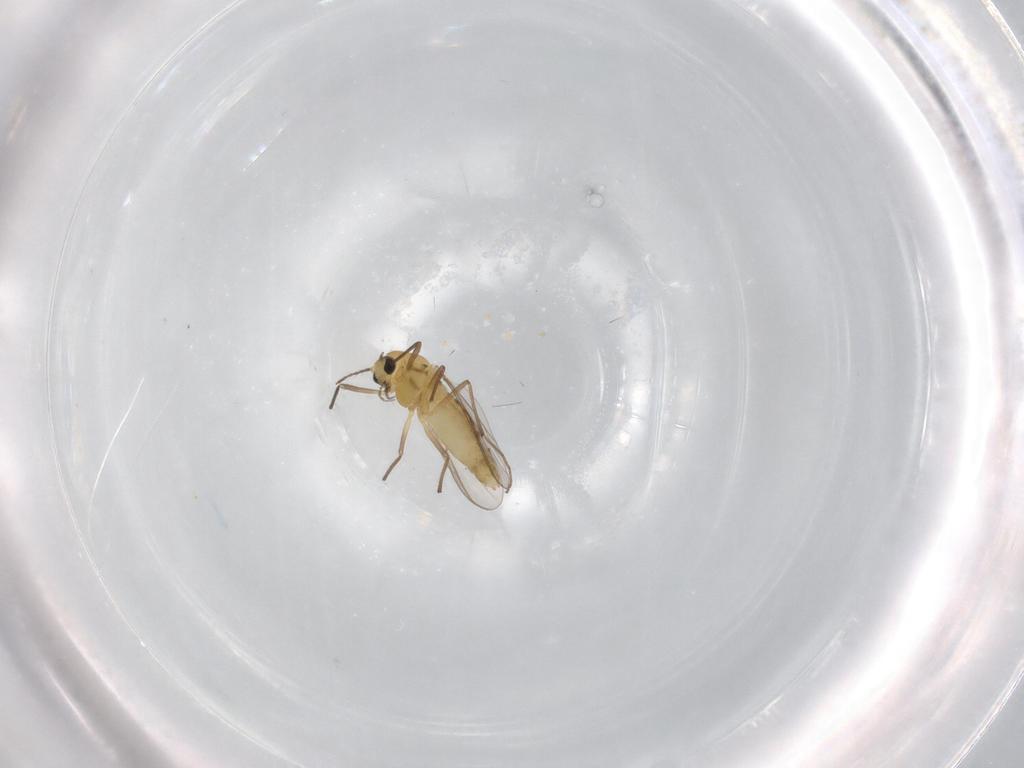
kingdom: Animalia
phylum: Arthropoda
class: Insecta
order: Diptera
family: Chironomidae
